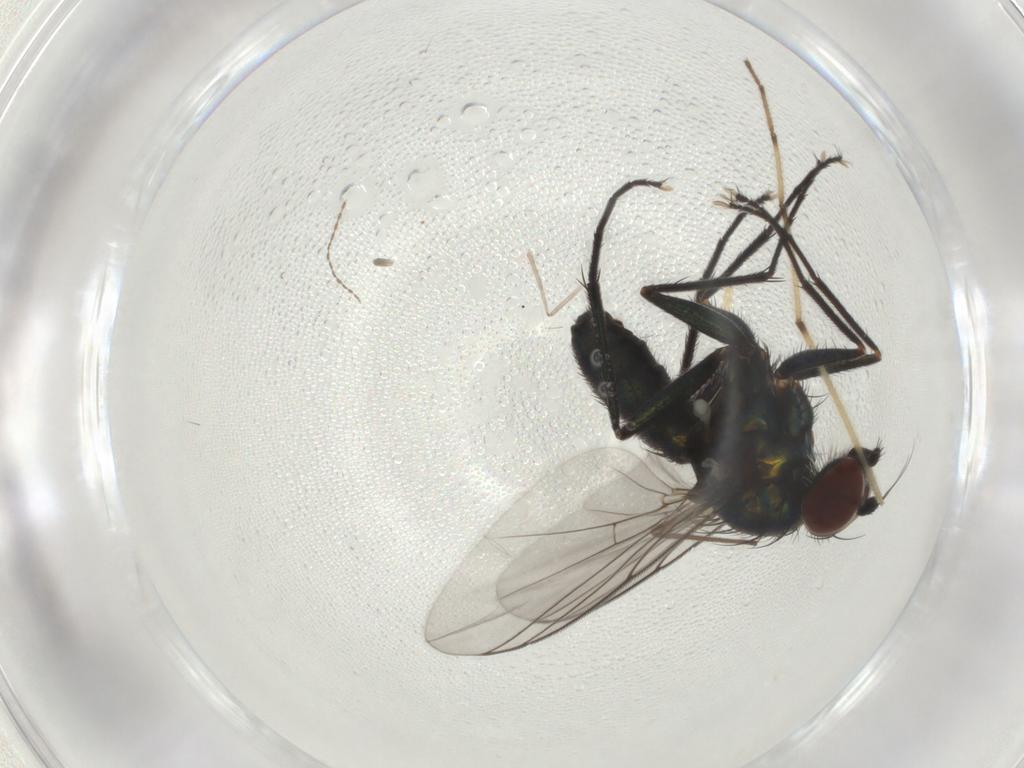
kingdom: Animalia
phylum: Arthropoda
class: Insecta
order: Diptera
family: Dolichopodidae
